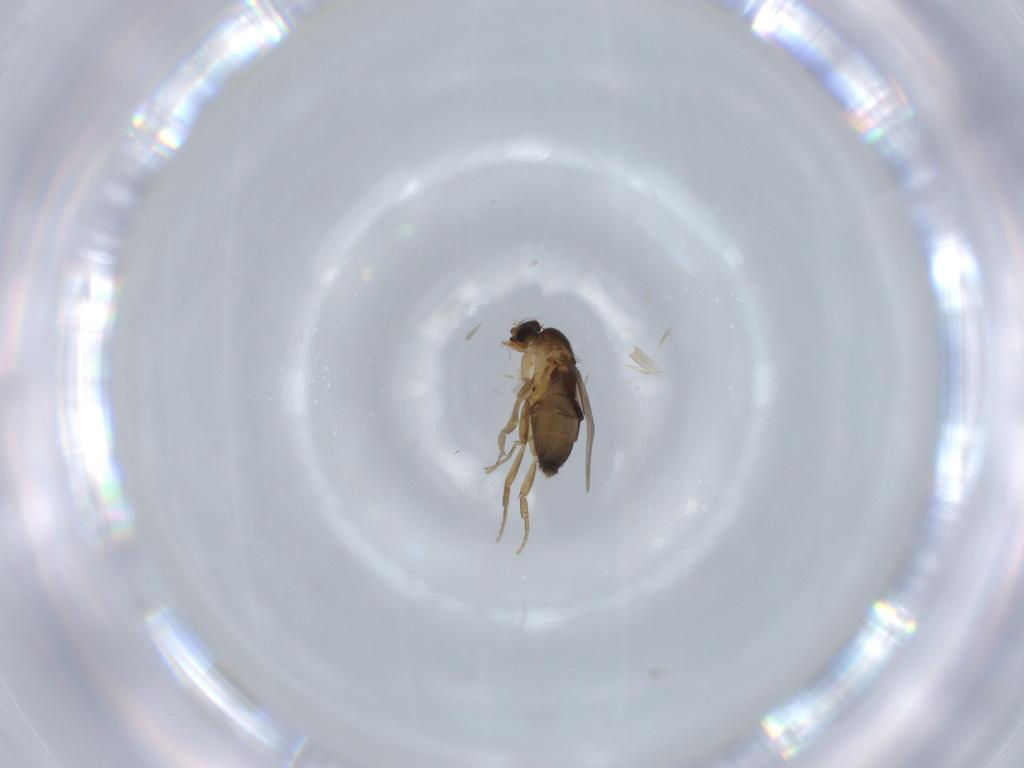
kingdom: Animalia
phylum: Arthropoda
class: Insecta
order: Diptera
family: Phoridae
